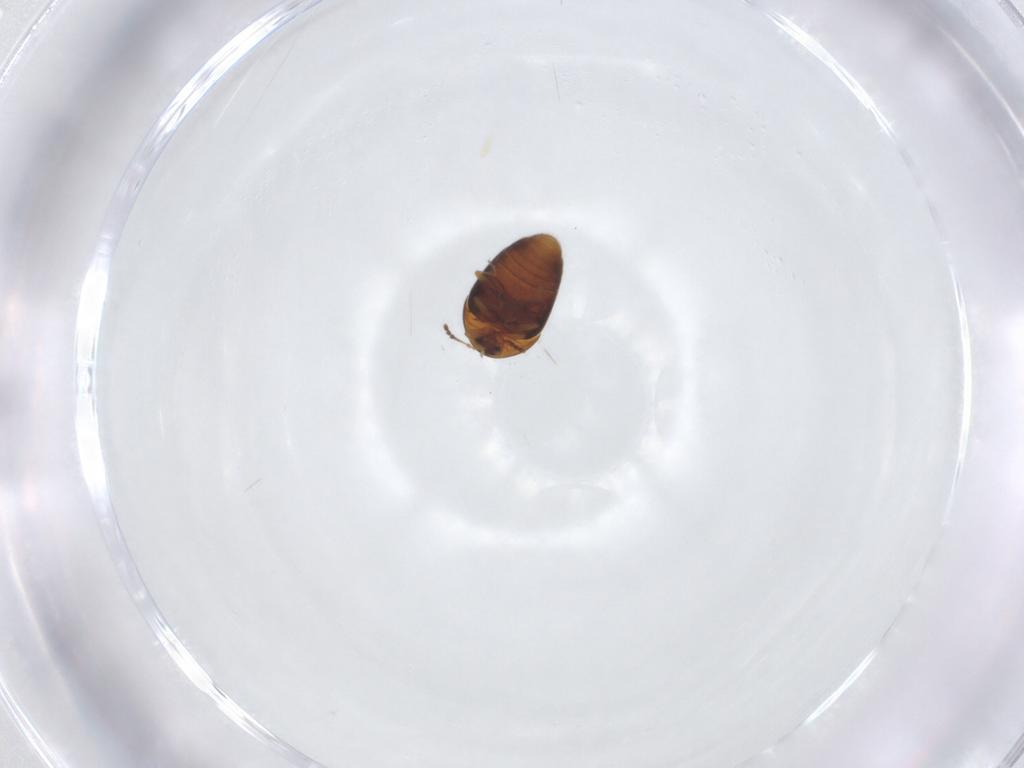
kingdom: Animalia
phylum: Arthropoda
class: Insecta
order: Coleoptera
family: Corylophidae
